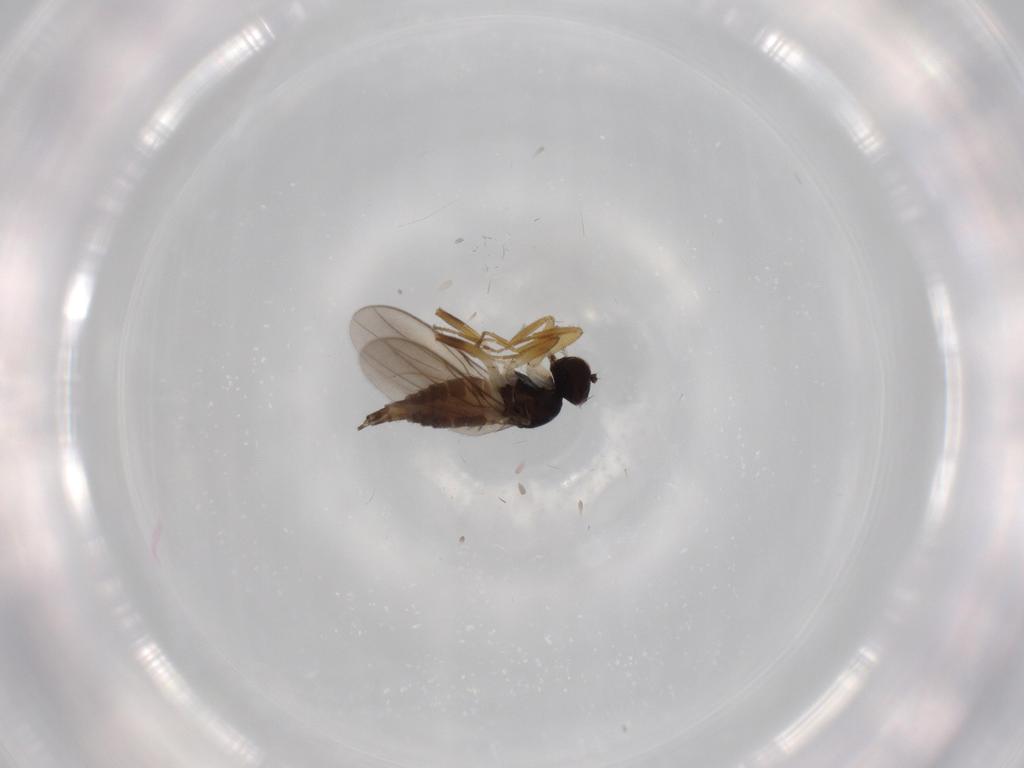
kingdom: Animalia
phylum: Arthropoda
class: Insecta
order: Diptera
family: Hybotidae
